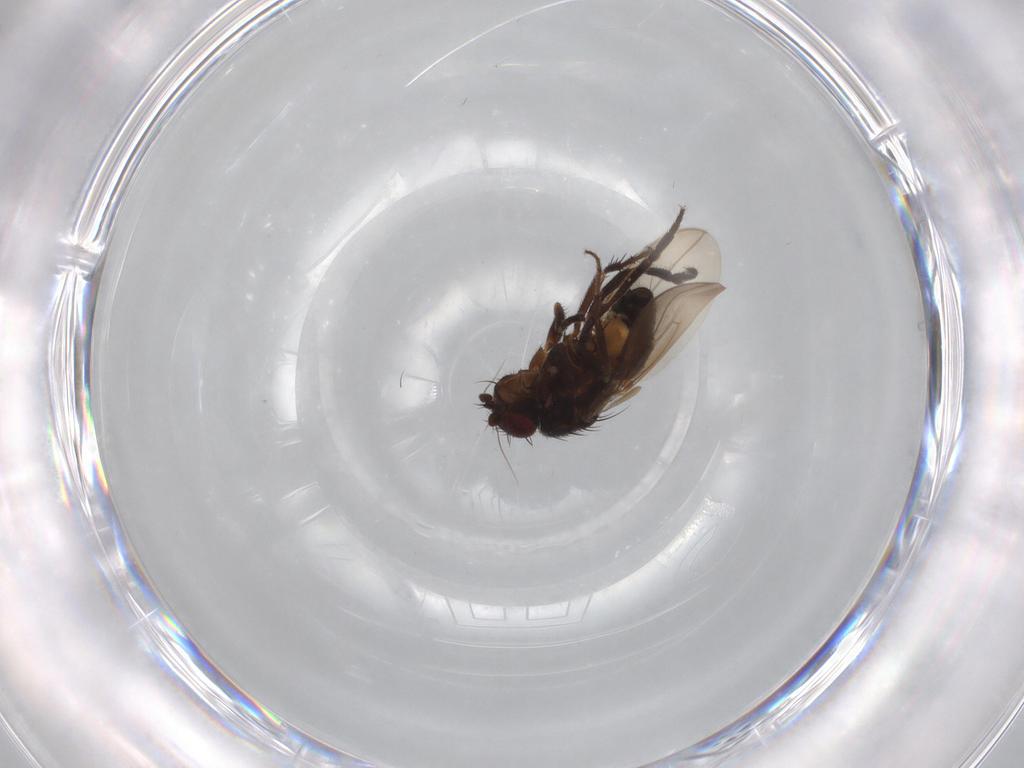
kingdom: Animalia
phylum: Arthropoda
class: Insecta
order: Diptera
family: Sphaeroceridae
